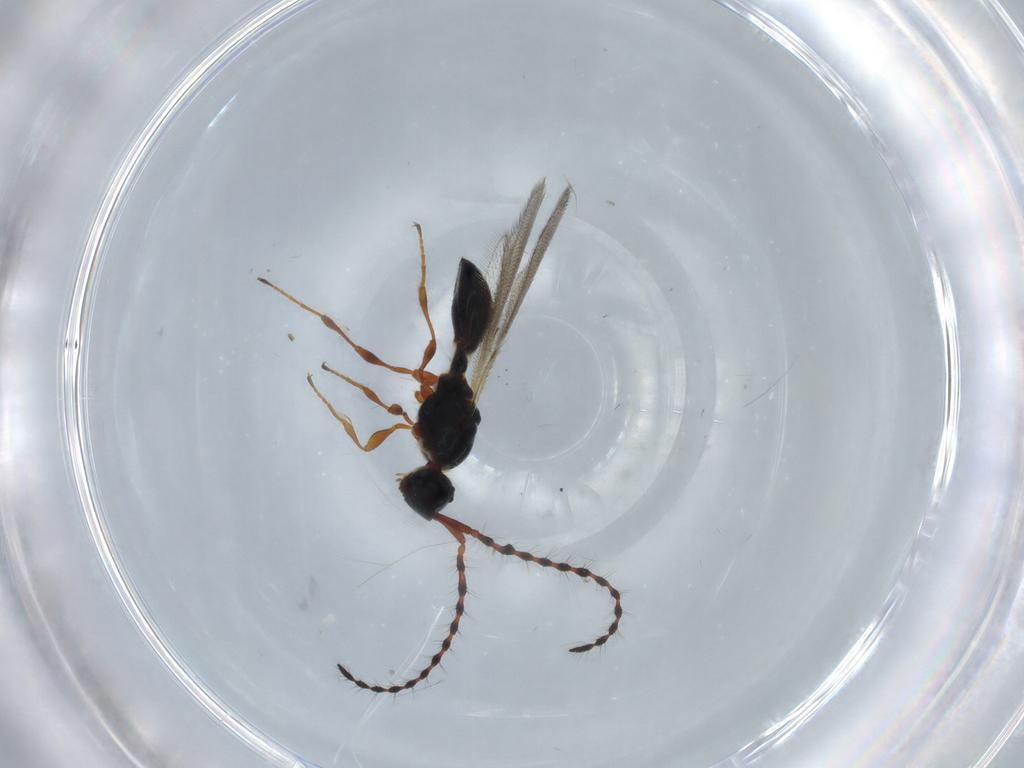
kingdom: Animalia
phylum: Arthropoda
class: Insecta
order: Hymenoptera
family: Diapriidae
